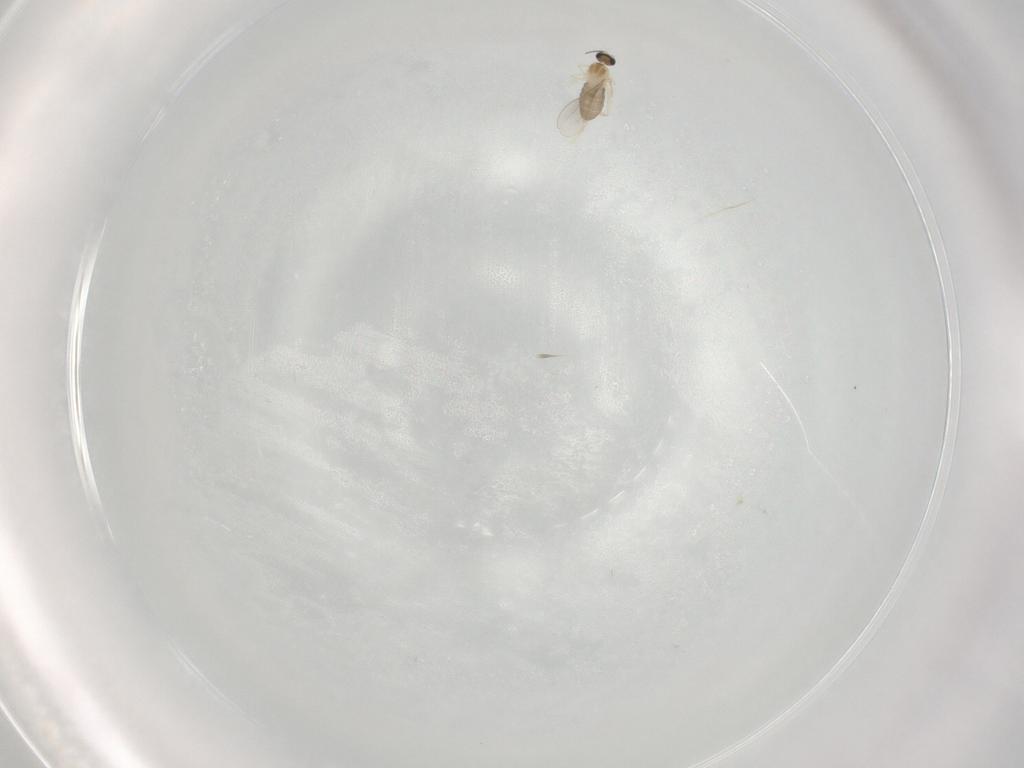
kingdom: Animalia
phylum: Arthropoda
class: Insecta
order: Diptera
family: Cecidomyiidae
